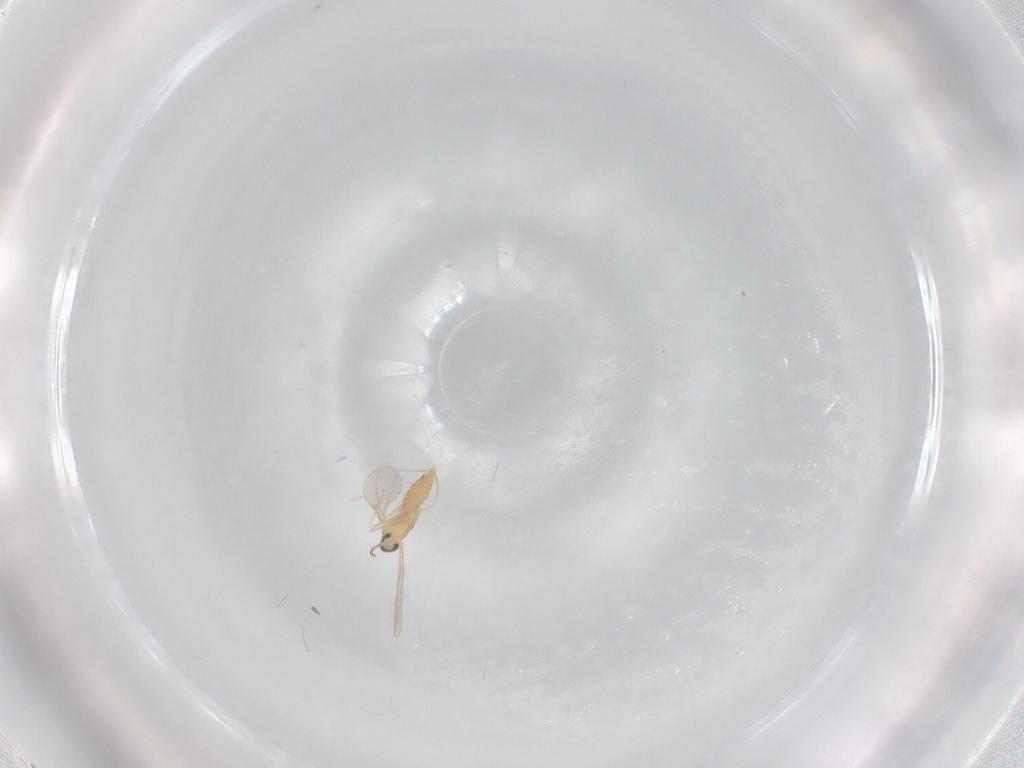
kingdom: Animalia
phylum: Arthropoda
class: Insecta
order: Diptera
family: Cecidomyiidae
